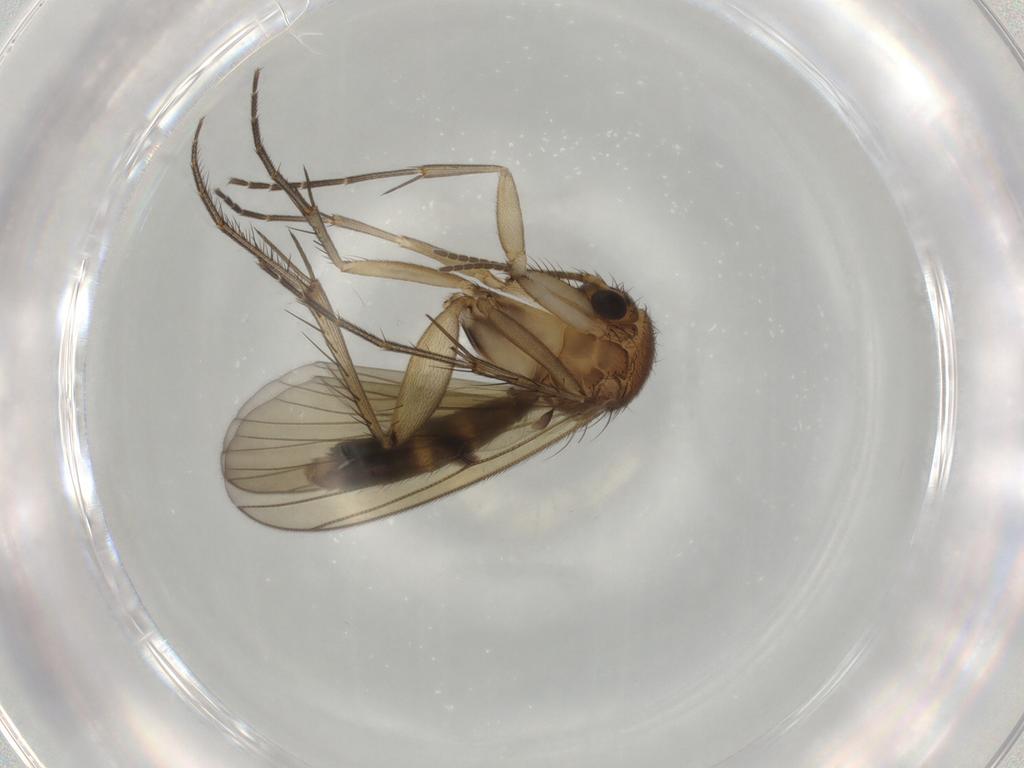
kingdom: Animalia
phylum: Arthropoda
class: Insecta
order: Diptera
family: Mycetophilidae
